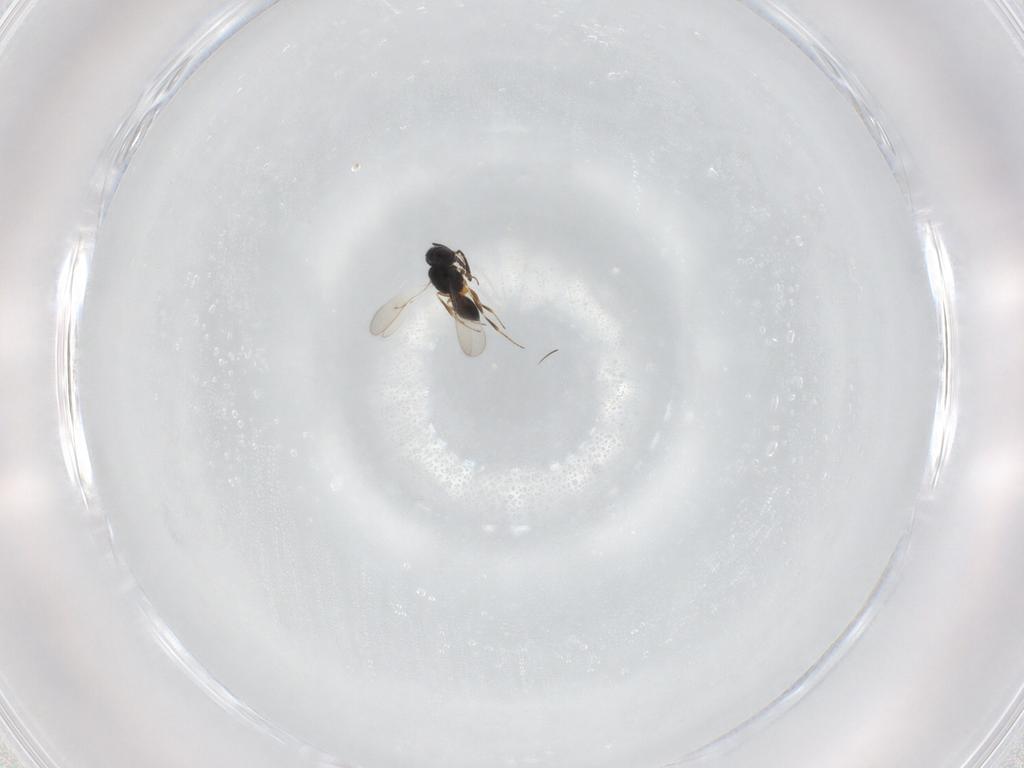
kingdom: Animalia
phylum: Arthropoda
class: Insecta
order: Hymenoptera
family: Scelionidae
